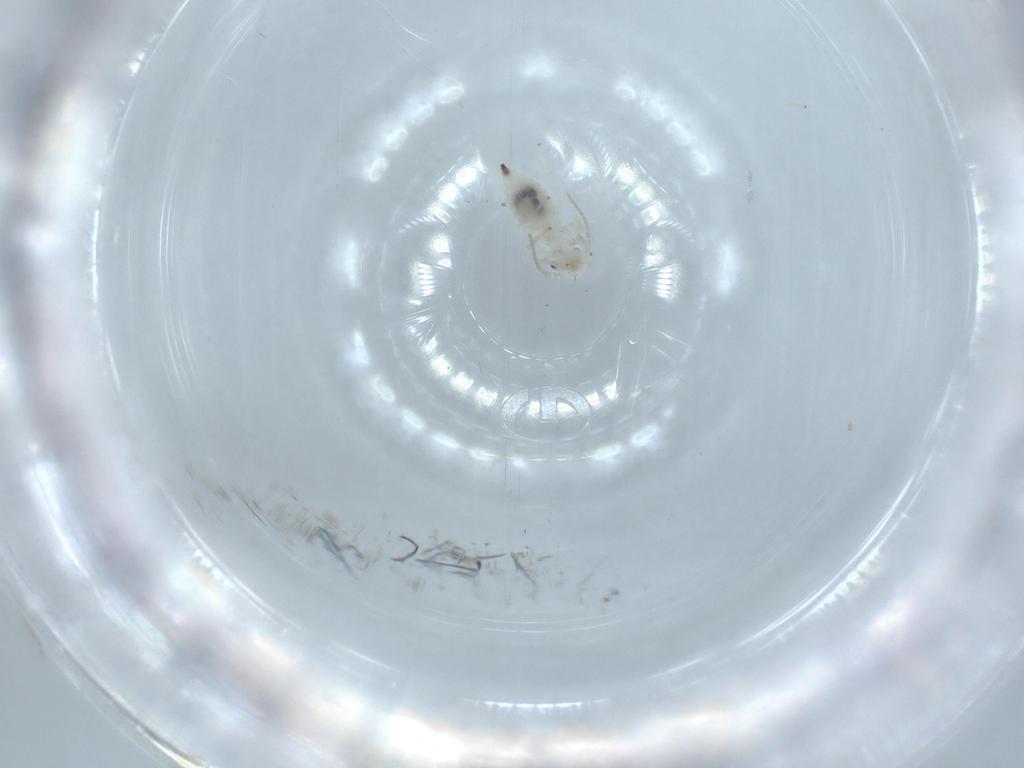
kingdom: Animalia
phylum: Arthropoda
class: Insecta
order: Psocodea
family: Caeciliusidae
